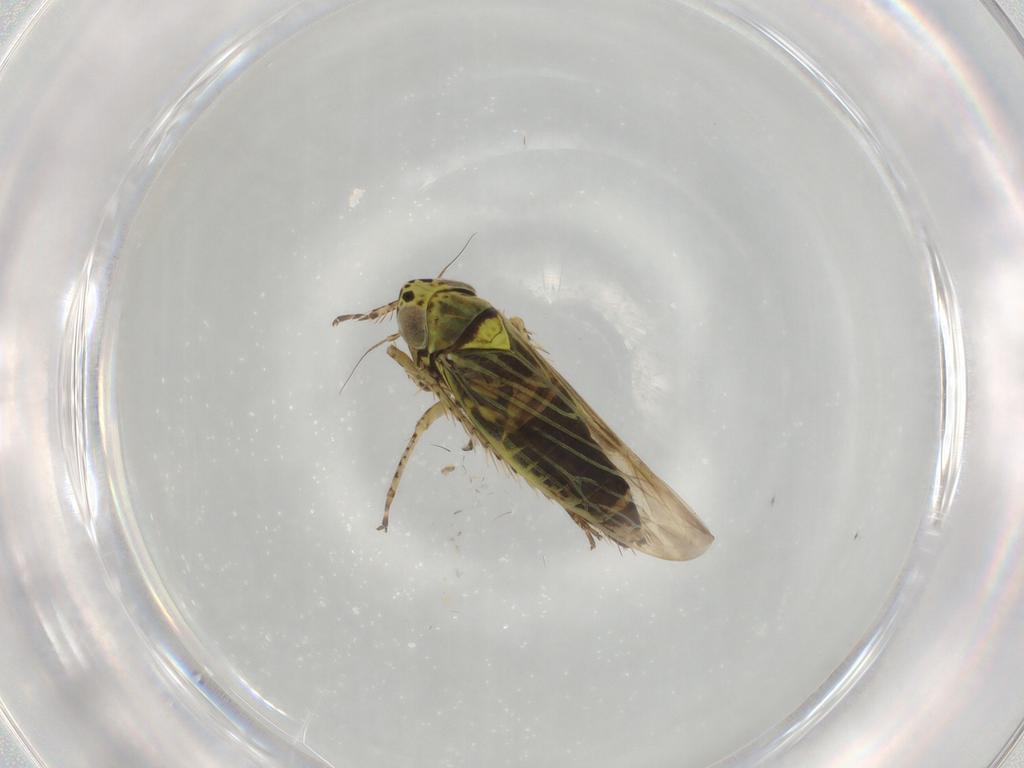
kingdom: Animalia
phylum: Arthropoda
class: Insecta
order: Hemiptera
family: Cicadellidae
